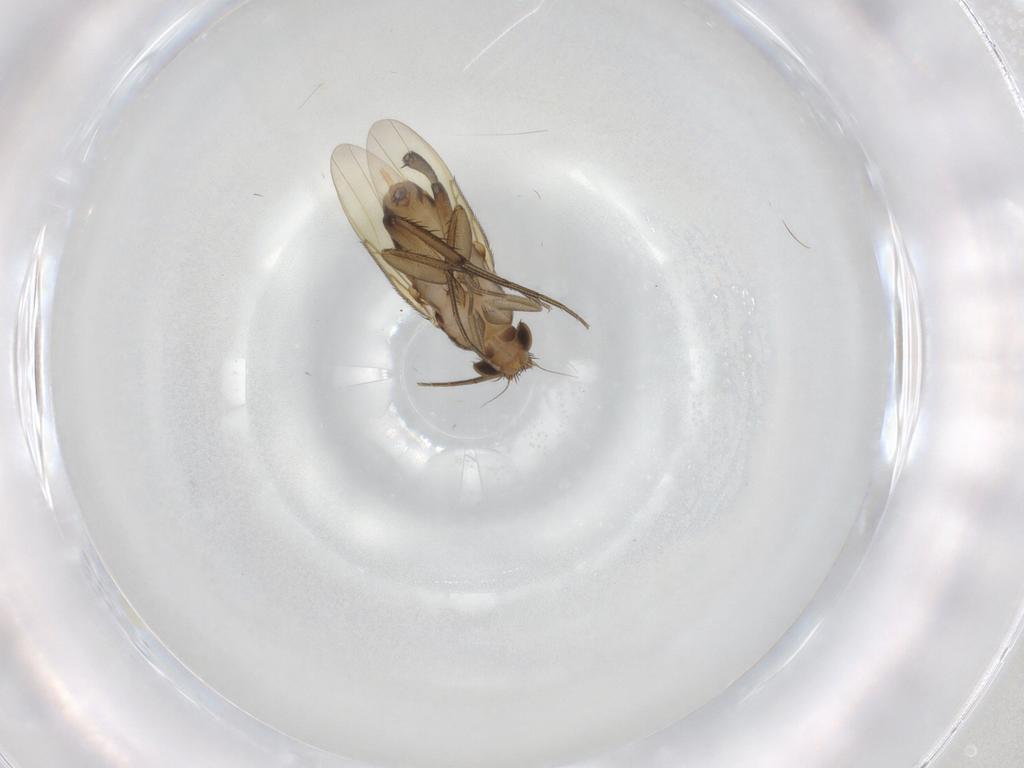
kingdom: Animalia
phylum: Arthropoda
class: Insecta
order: Diptera
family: Phoridae
